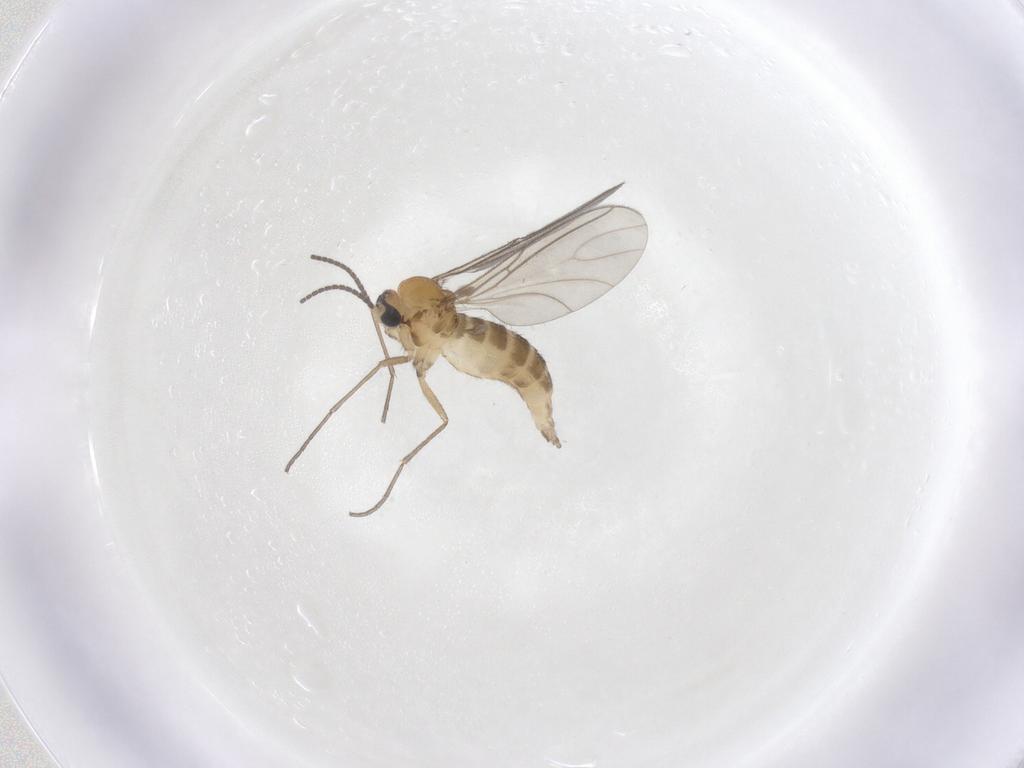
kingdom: Animalia
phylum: Arthropoda
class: Insecta
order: Diptera
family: Sciaridae
